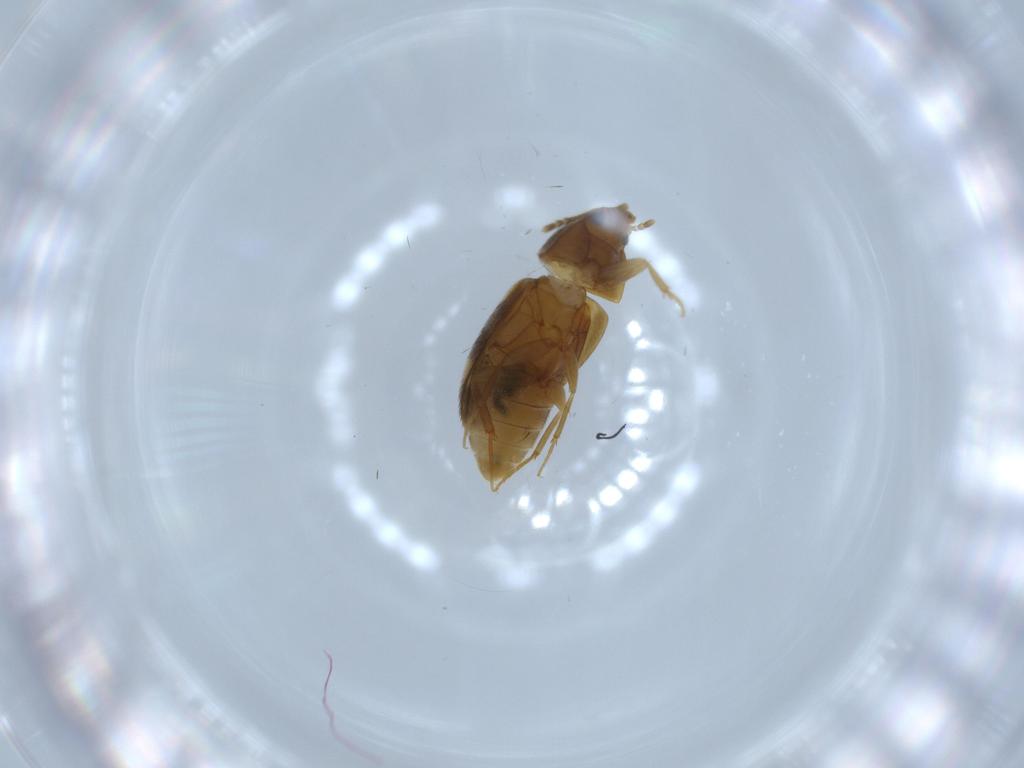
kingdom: Animalia
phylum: Arthropoda
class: Insecta
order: Coleoptera
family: Mycetophagidae
